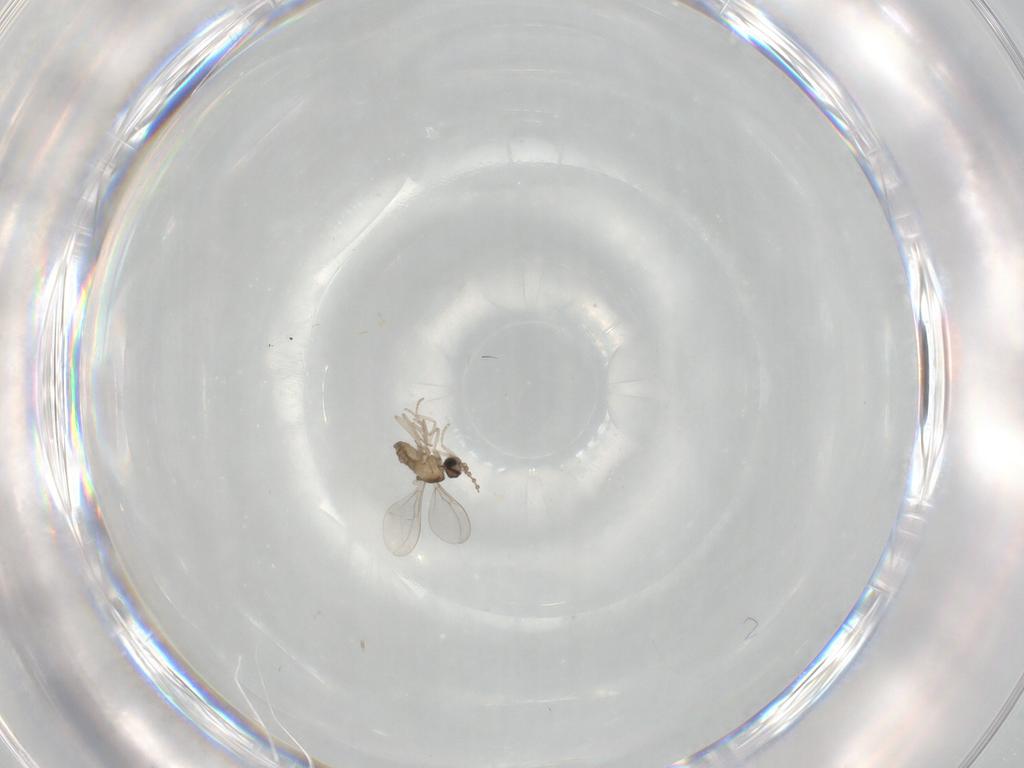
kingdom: Animalia
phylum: Arthropoda
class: Insecta
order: Diptera
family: Cecidomyiidae
